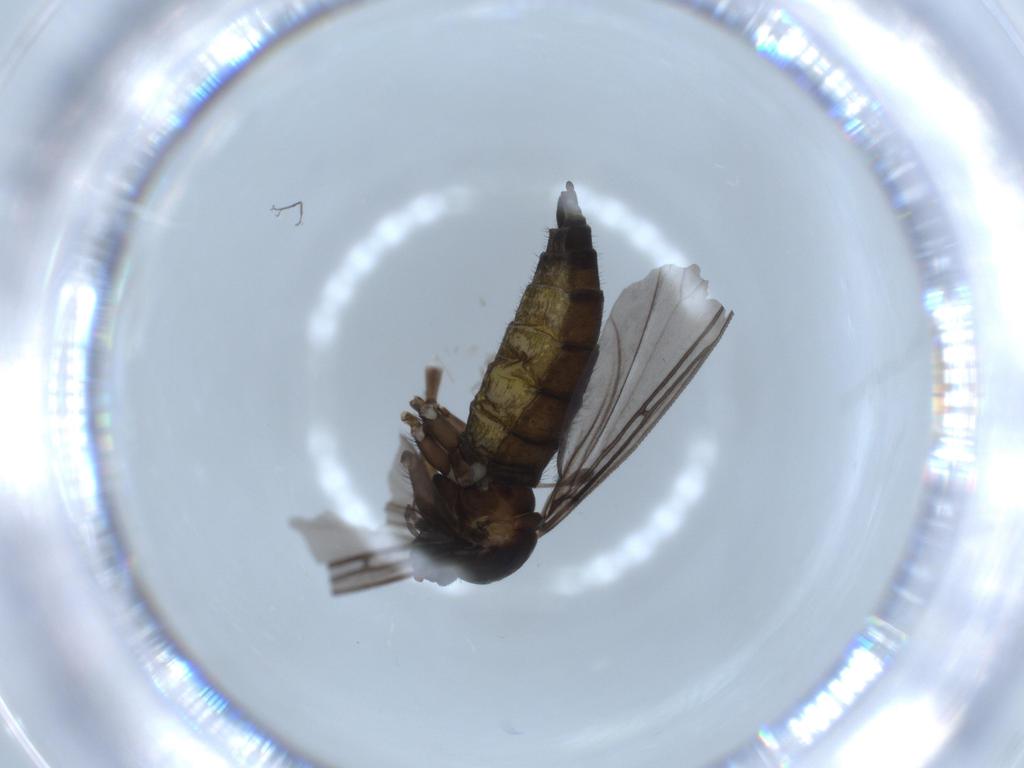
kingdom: Animalia
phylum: Arthropoda
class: Insecta
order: Diptera
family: Sciaridae
